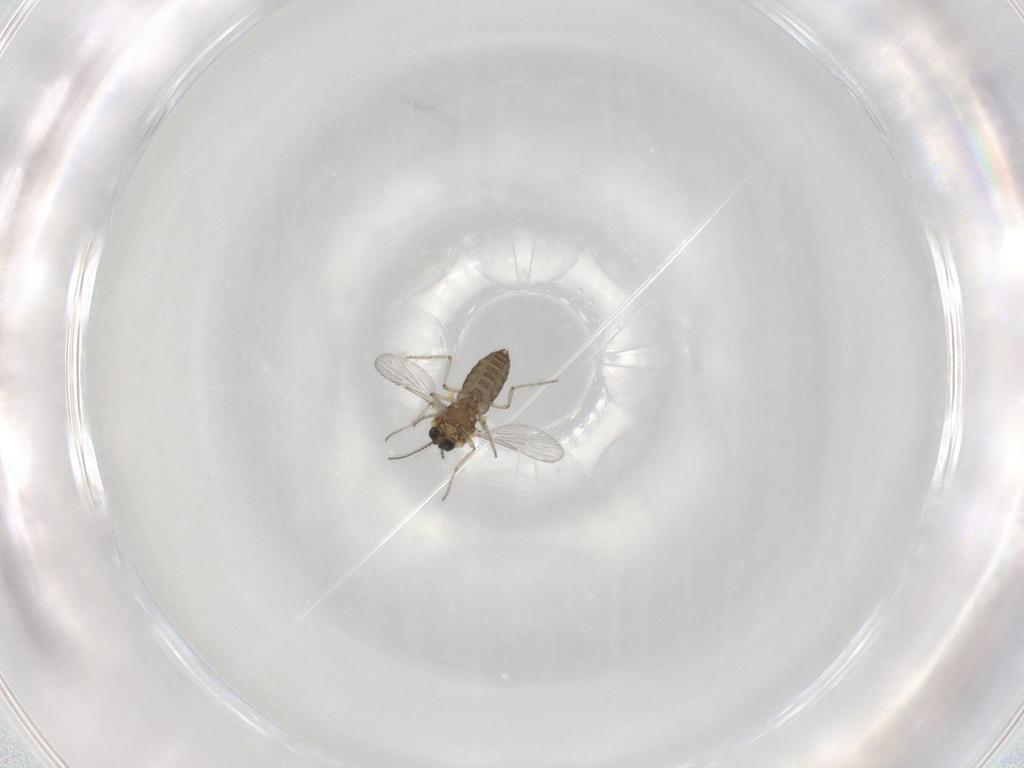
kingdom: Animalia
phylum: Arthropoda
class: Insecta
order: Diptera
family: Ceratopogonidae
